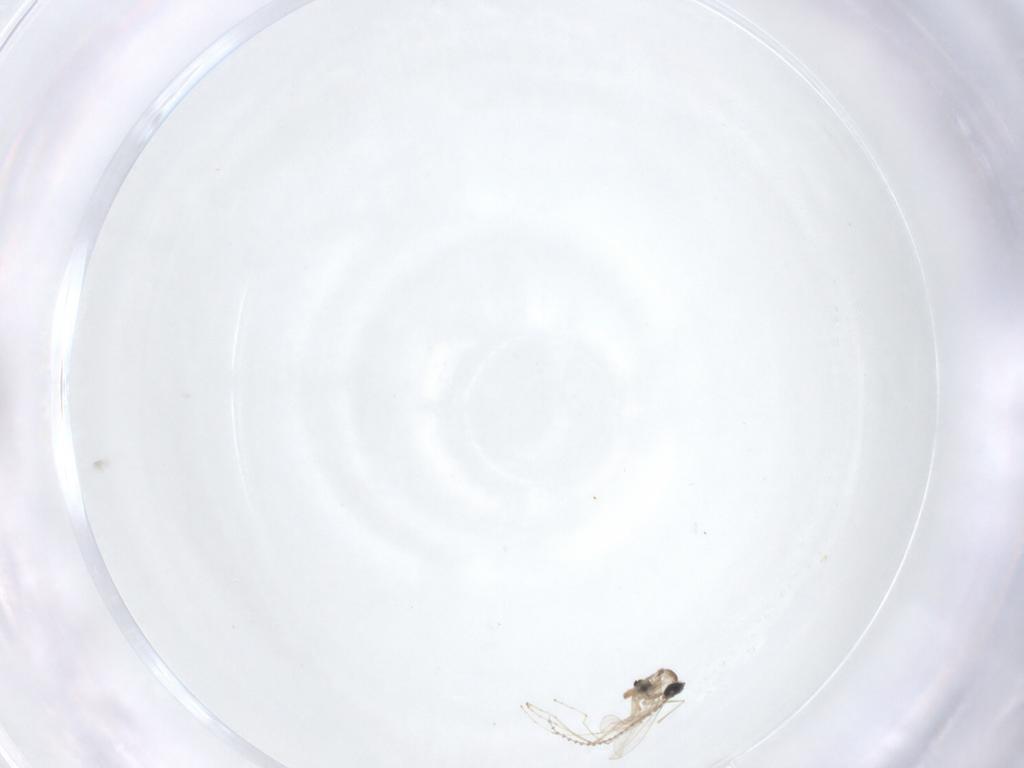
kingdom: Animalia
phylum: Arthropoda
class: Insecta
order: Diptera
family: Cecidomyiidae
